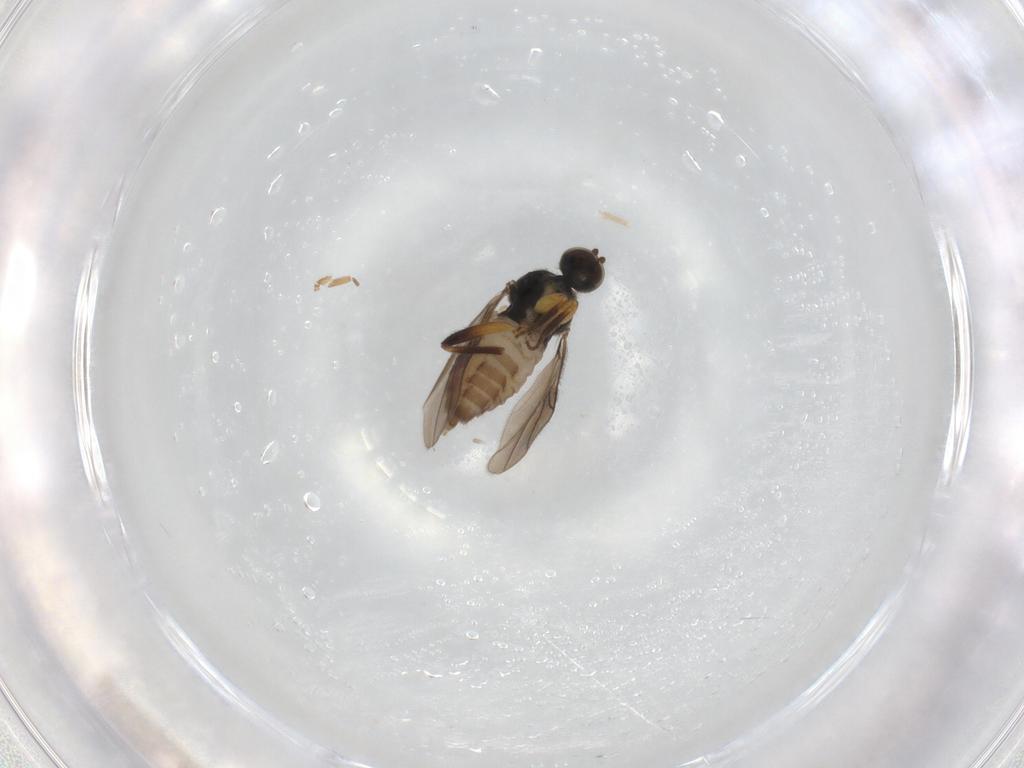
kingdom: Animalia
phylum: Arthropoda
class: Insecta
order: Diptera
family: Hybotidae
